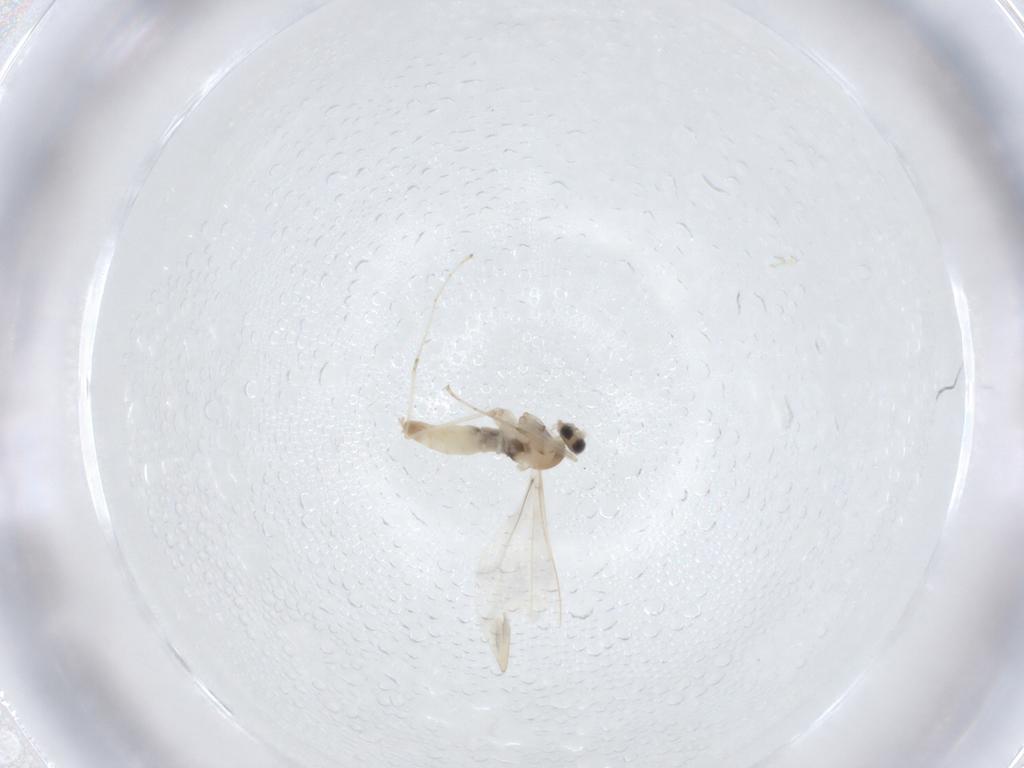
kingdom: Animalia
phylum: Arthropoda
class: Insecta
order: Diptera
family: Cecidomyiidae
